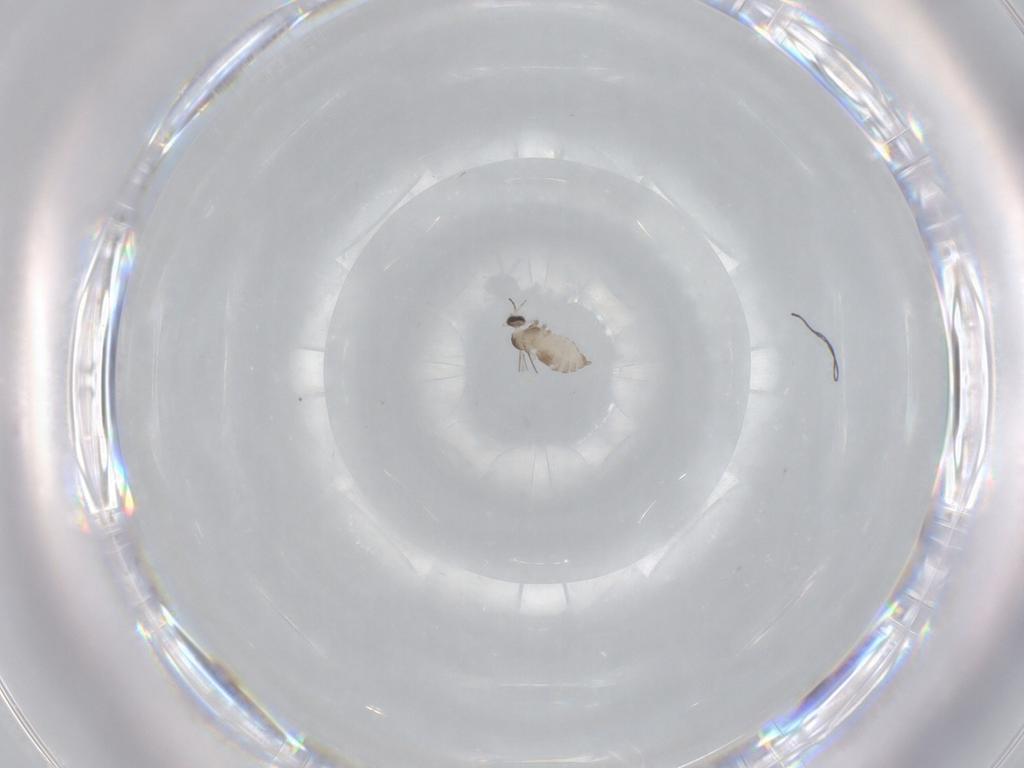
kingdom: Animalia
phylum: Arthropoda
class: Insecta
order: Diptera
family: Cecidomyiidae
